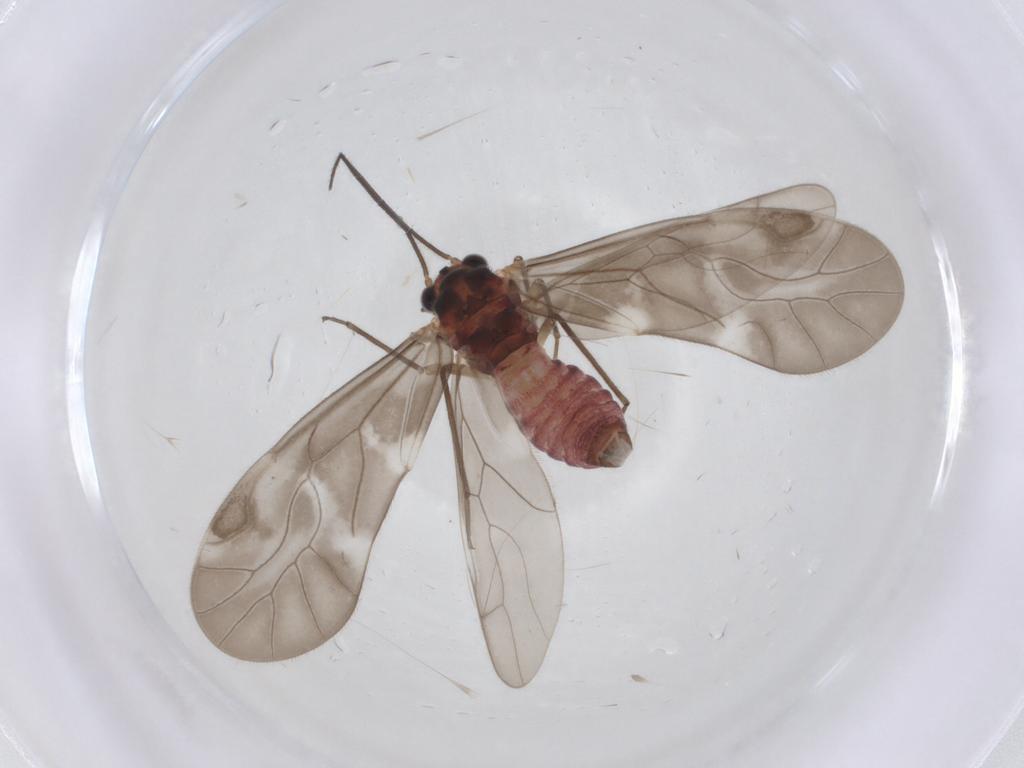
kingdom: Animalia
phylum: Arthropoda
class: Insecta
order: Psocodea
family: Caeciliusidae
